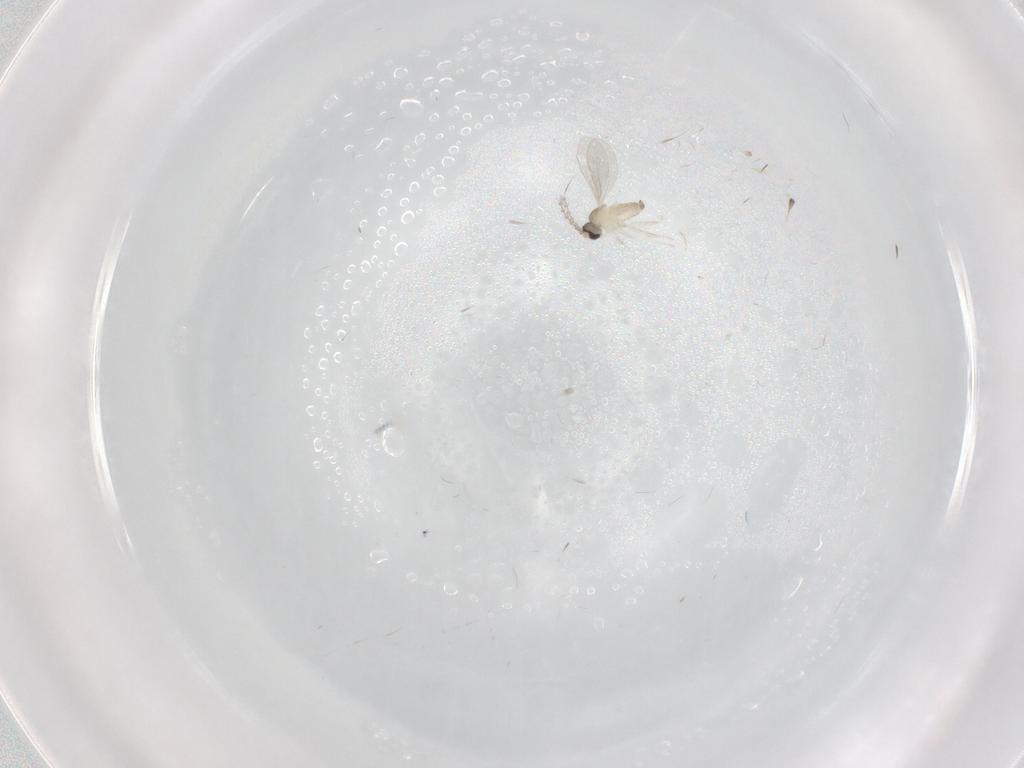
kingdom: Animalia
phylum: Arthropoda
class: Insecta
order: Diptera
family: Cecidomyiidae
